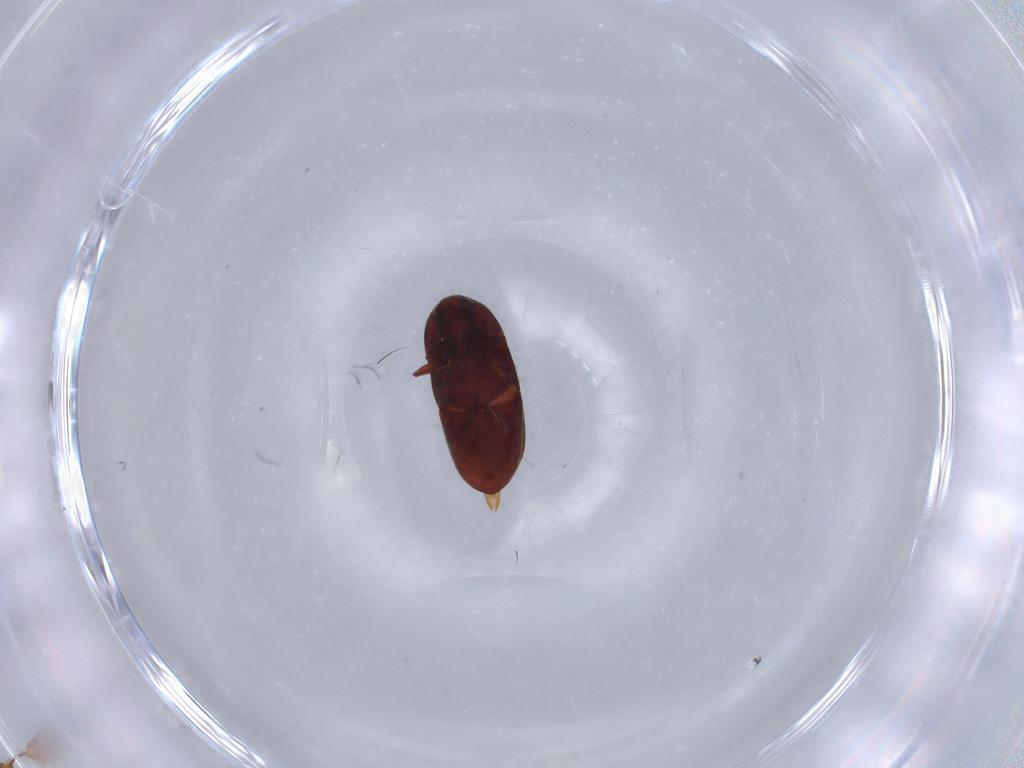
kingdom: Animalia
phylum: Arthropoda
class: Insecta
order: Coleoptera
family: Throscidae
